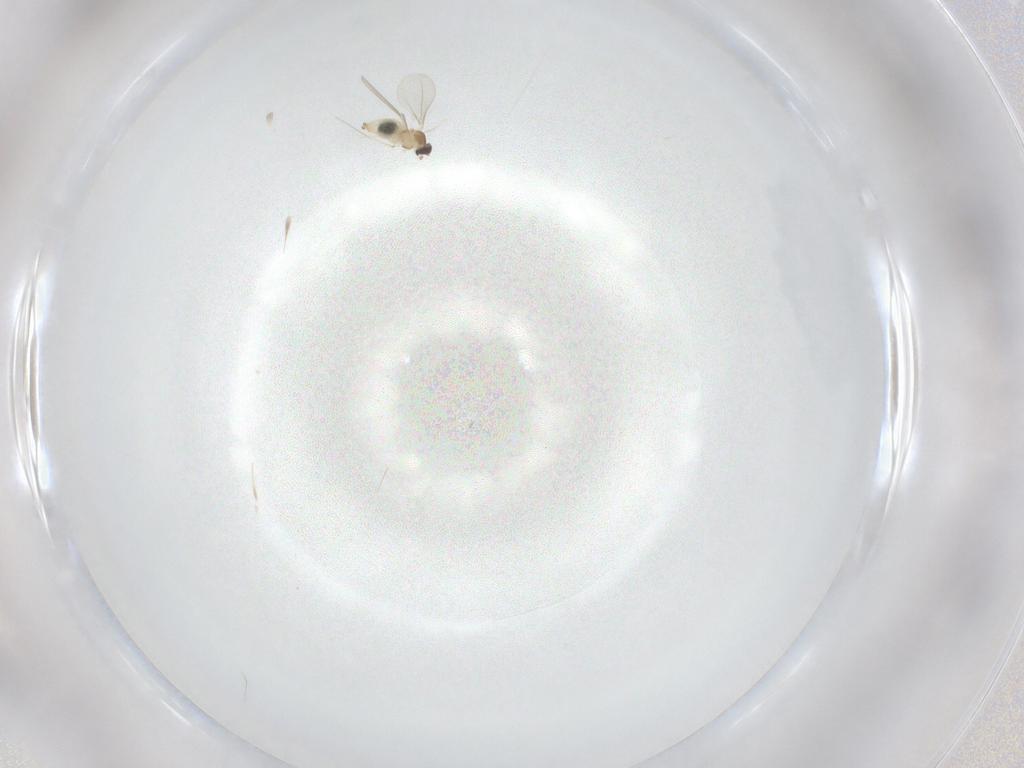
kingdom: Animalia
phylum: Arthropoda
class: Insecta
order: Diptera
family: Cecidomyiidae
